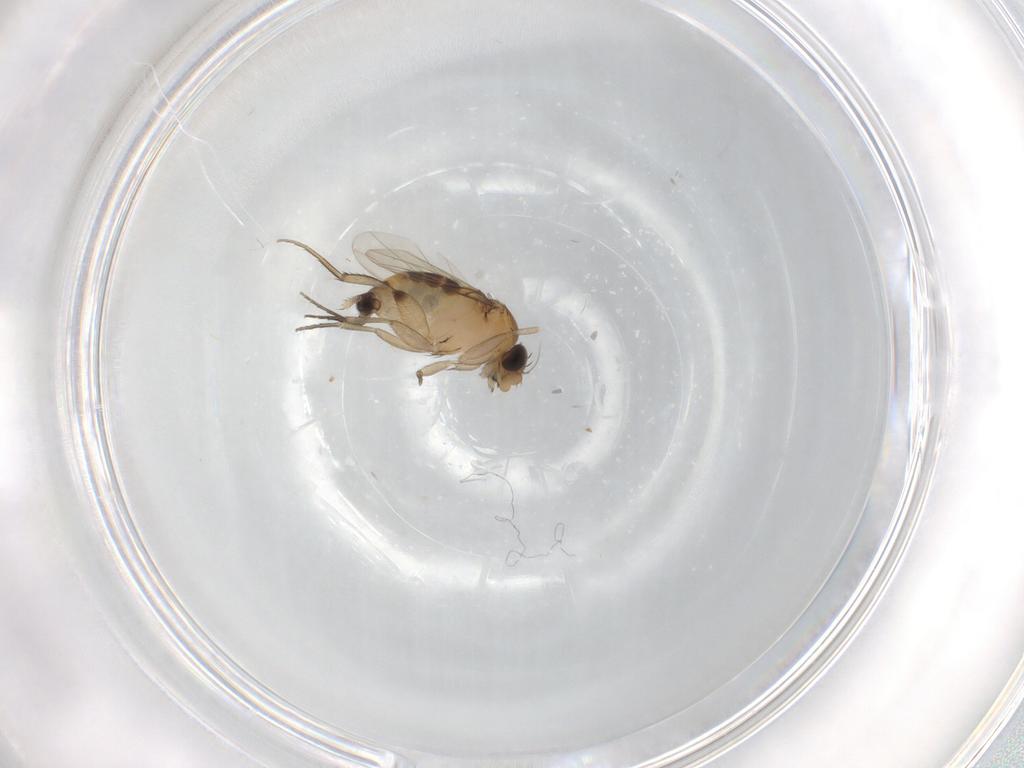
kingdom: Animalia
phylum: Arthropoda
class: Insecta
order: Diptera
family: Phoridae
